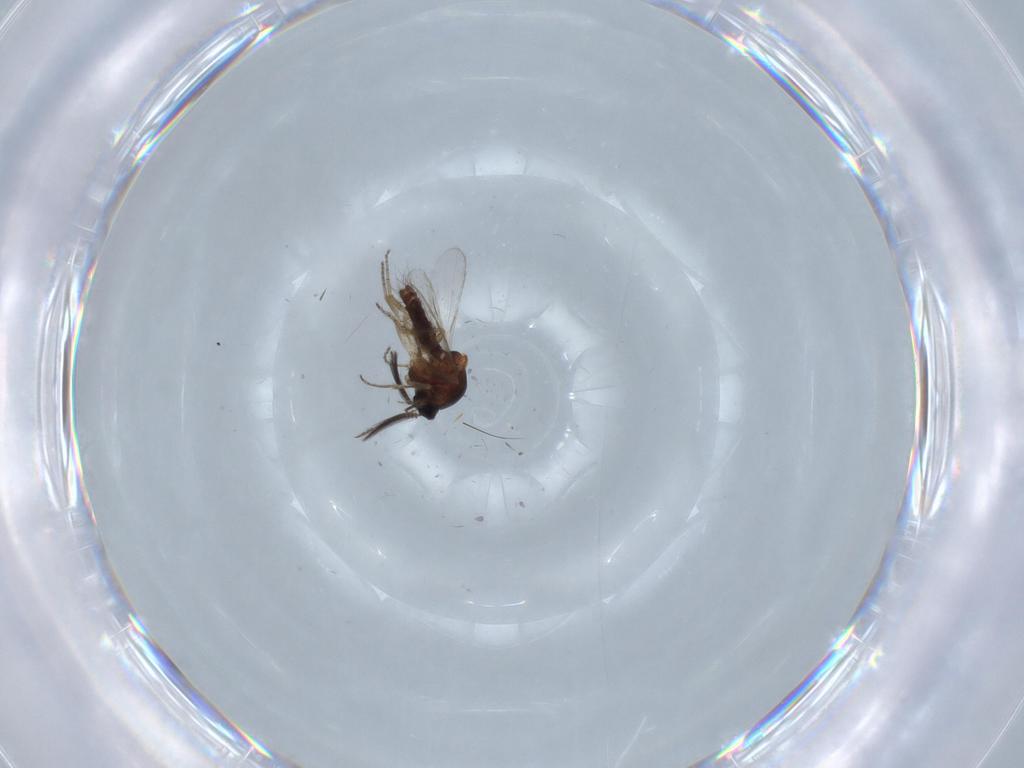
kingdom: Animalia
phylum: Arthropoda
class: Insecta
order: Diptera
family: Ceratopogonidae
